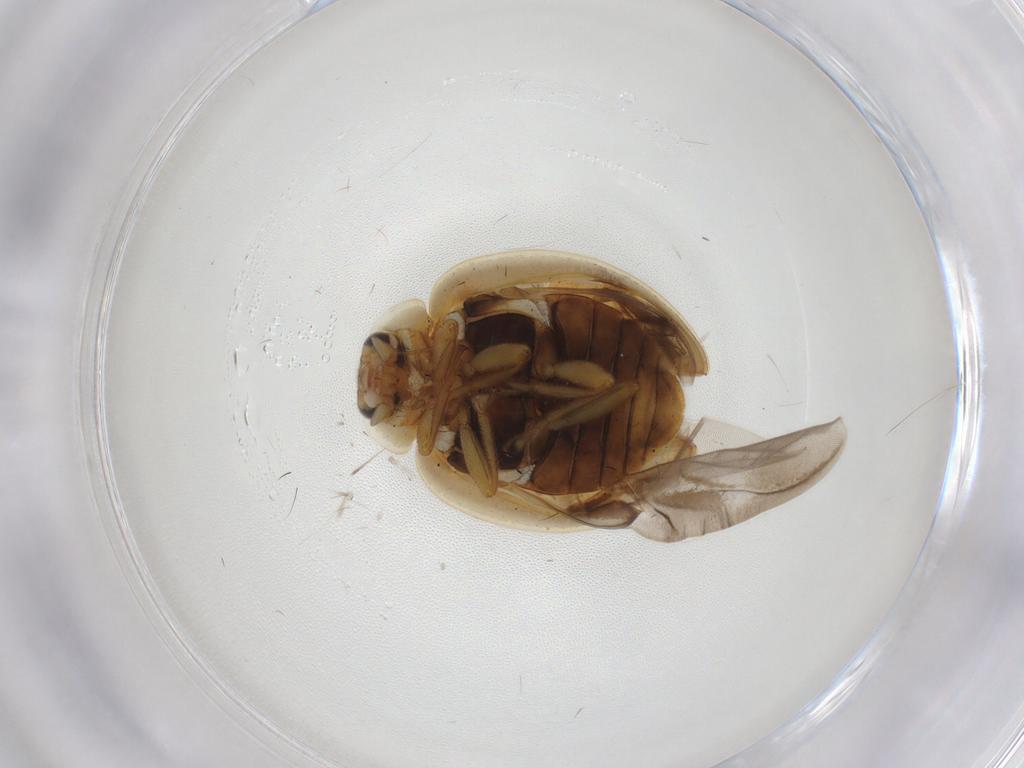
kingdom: Animalia
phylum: Arthropoda
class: Insecta
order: Coleoptera
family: Coccinellidae
